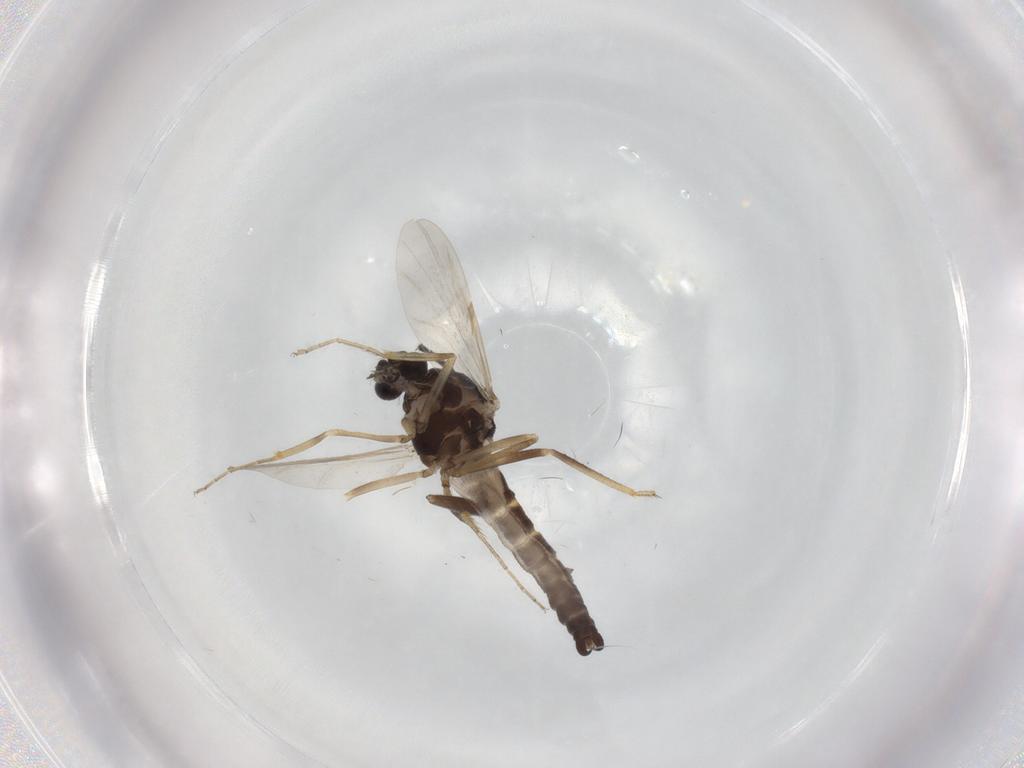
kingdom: Animalia
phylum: Arthropoda
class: Insecta
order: Diptera
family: Ceratopogonidae
